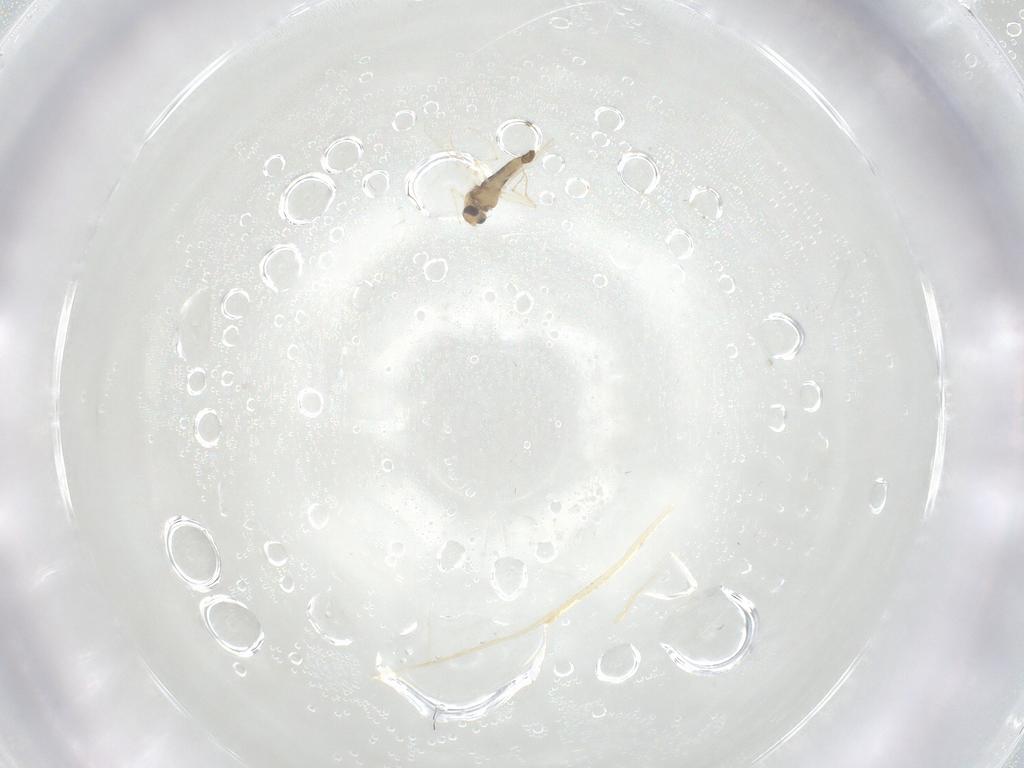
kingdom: Animalia
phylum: Arthropoda
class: Insecta
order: Diptera
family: Chironomidae
